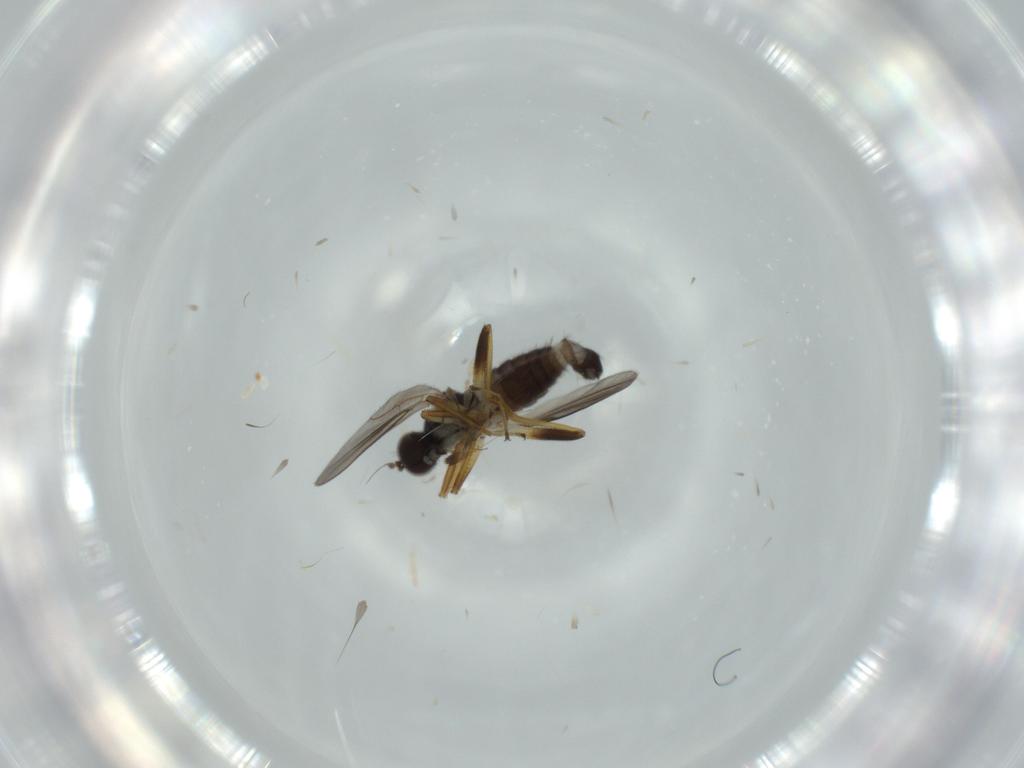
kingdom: Animalia
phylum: Arthropoda
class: Insecta
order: Diptera
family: Hybotidae
